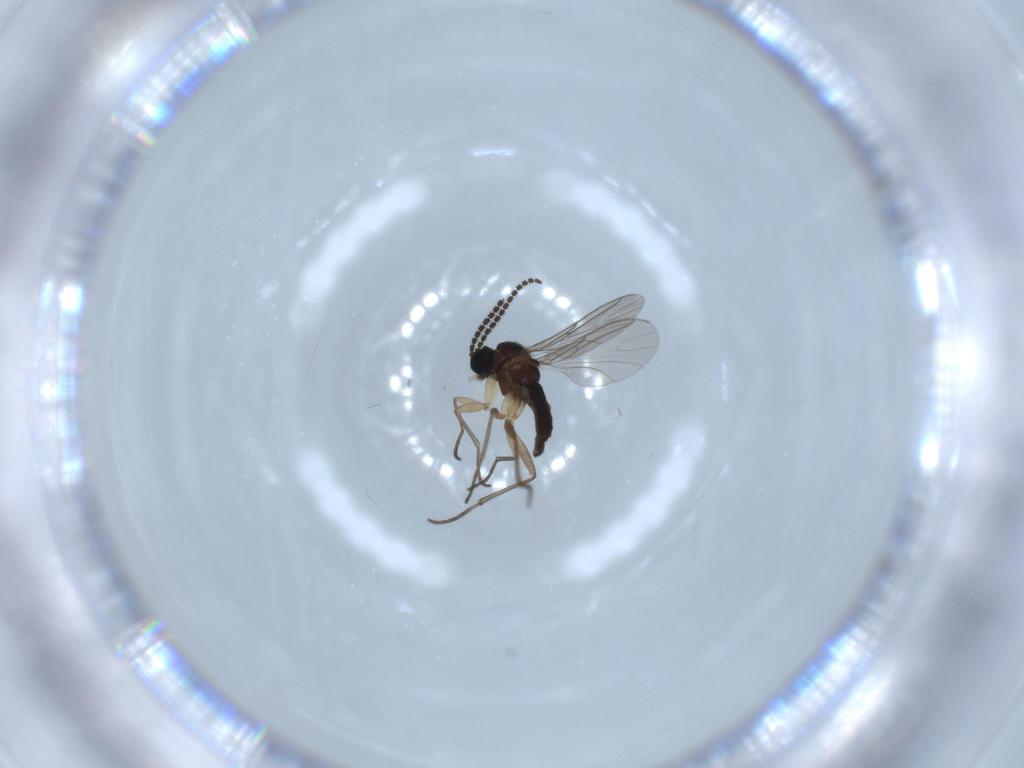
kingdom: Animalia
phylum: Arthropoda
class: Insecta
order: Diptera
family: Sciaridae
